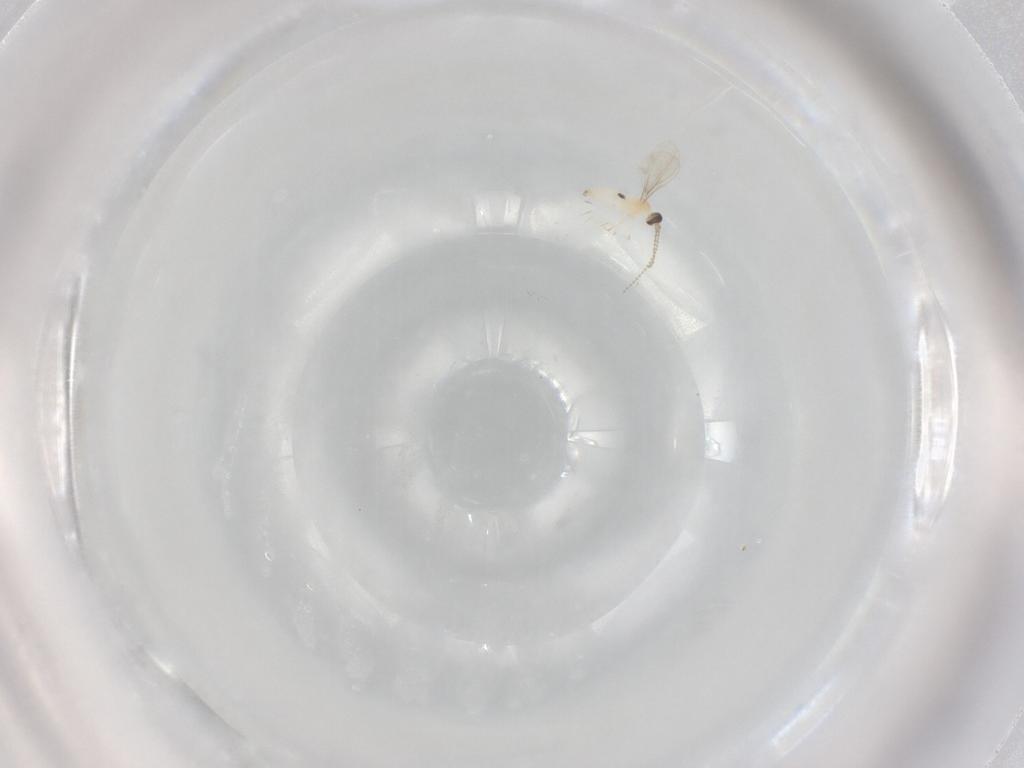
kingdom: Animalia
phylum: Arthropoda
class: Insecta
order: Diptera
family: Cecidomyiidae
